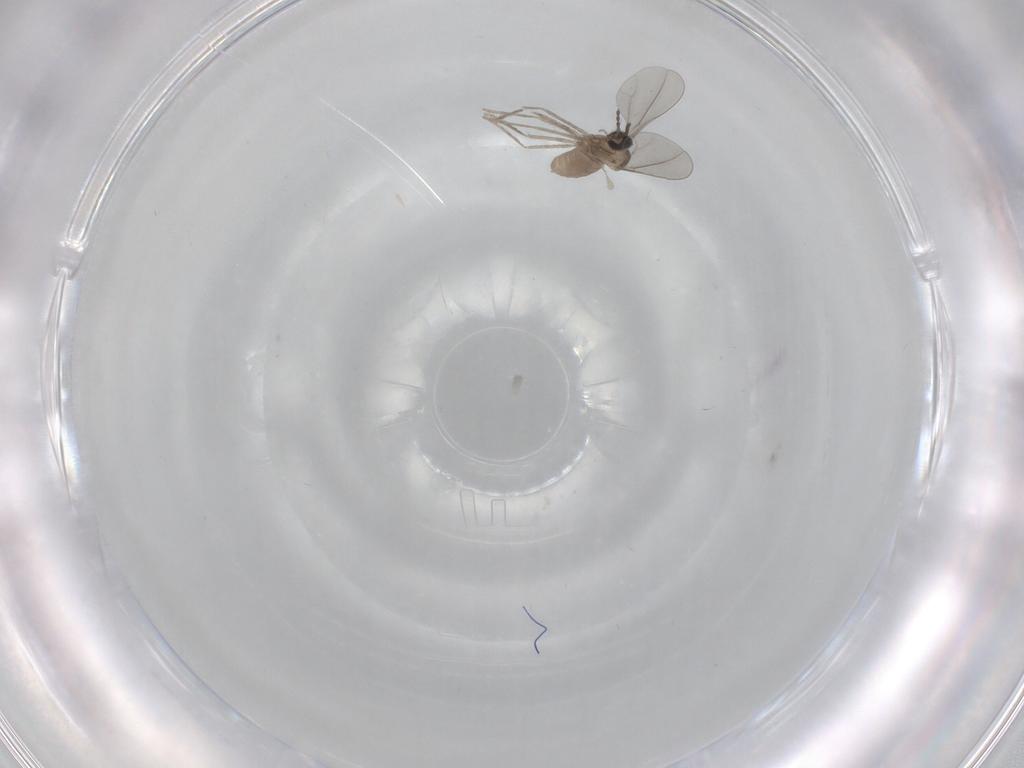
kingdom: Animalia
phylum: Arthropoda
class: Insecta
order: Diptera
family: Cecidomyiidae
